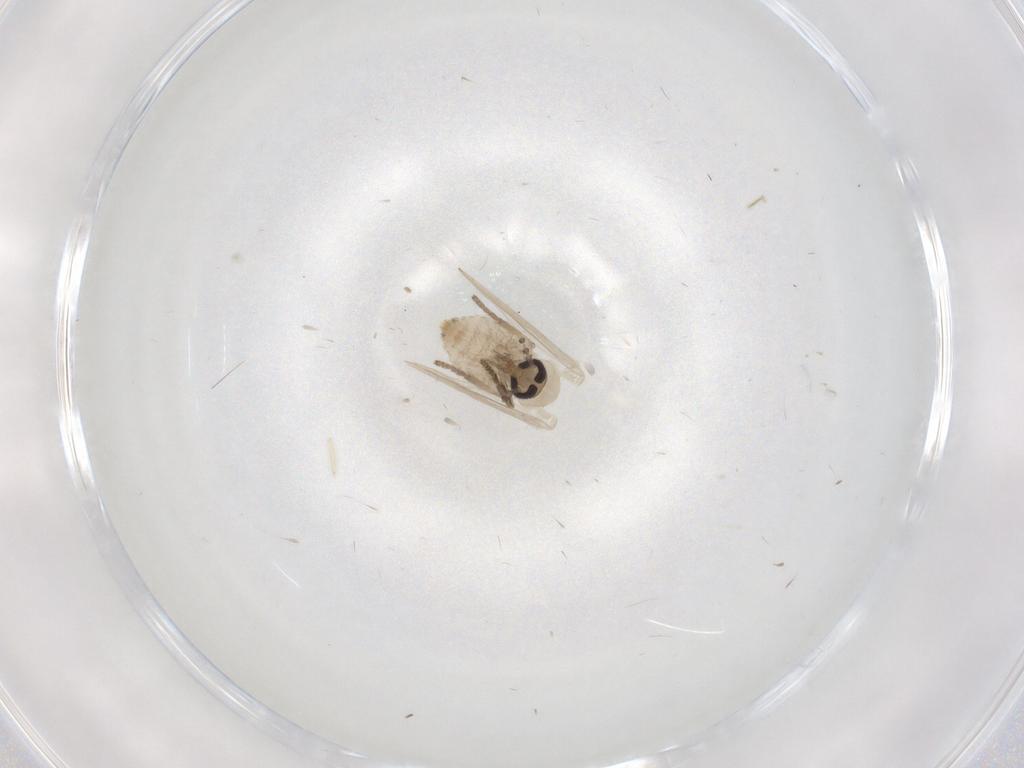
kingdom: Animalia
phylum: Arthropoda
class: Insecta
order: Diptera
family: Psychodidae
